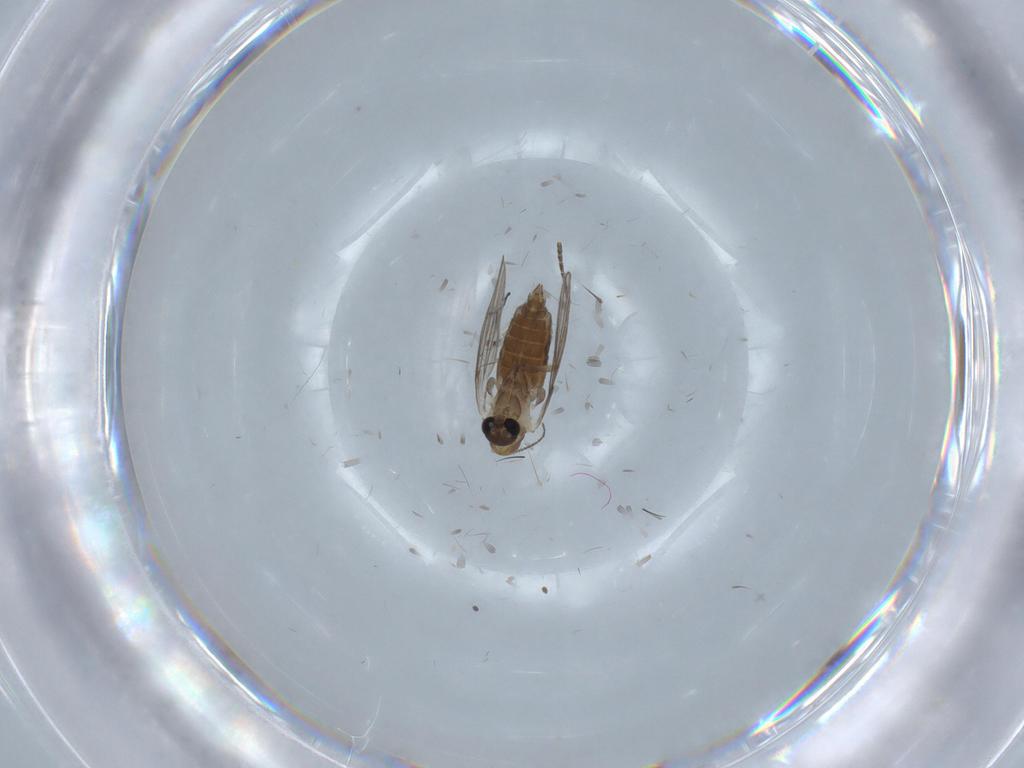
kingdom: Animalia
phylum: Arthropoda
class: Insecta
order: Diptera
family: Psychodidae
